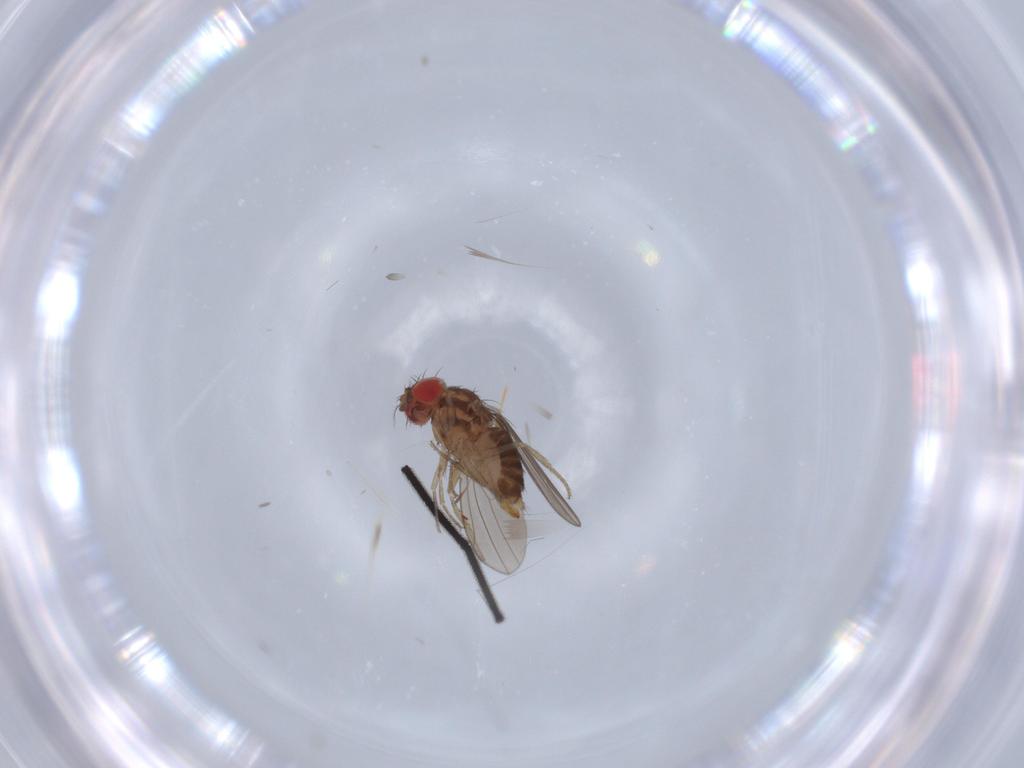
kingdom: Animalia
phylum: Arthropoda
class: Insecta
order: Diptera
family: Drosophilidae
